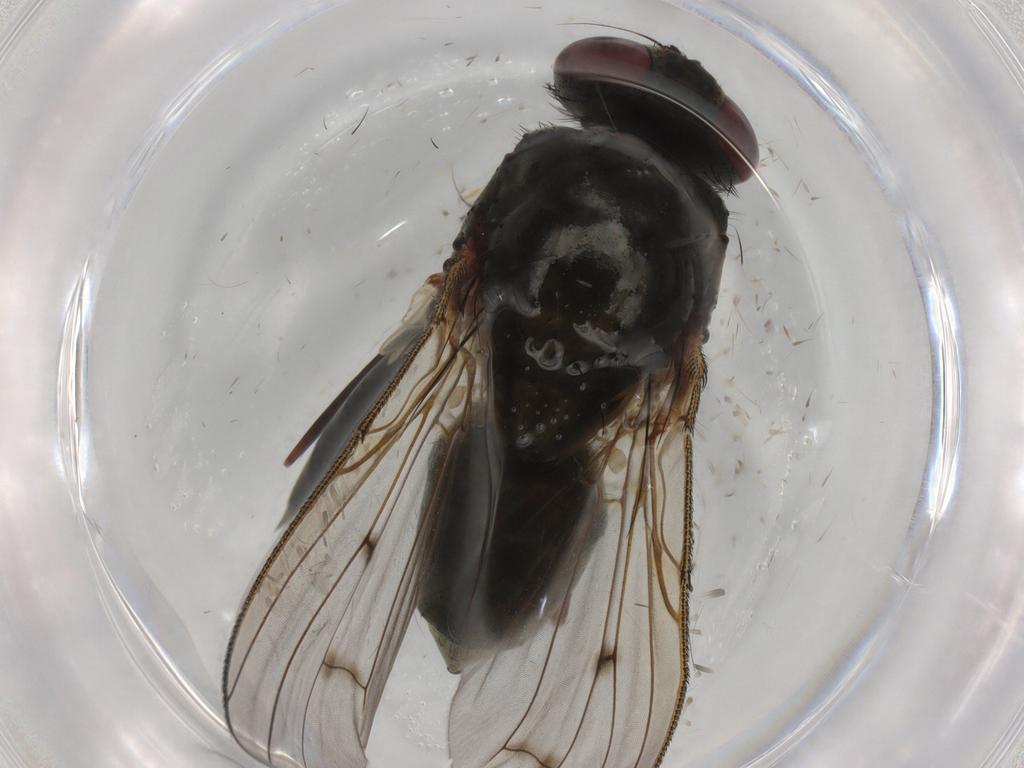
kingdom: Animalia
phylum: Arthropoda
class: Insecta
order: Diptera
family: Muscidae
